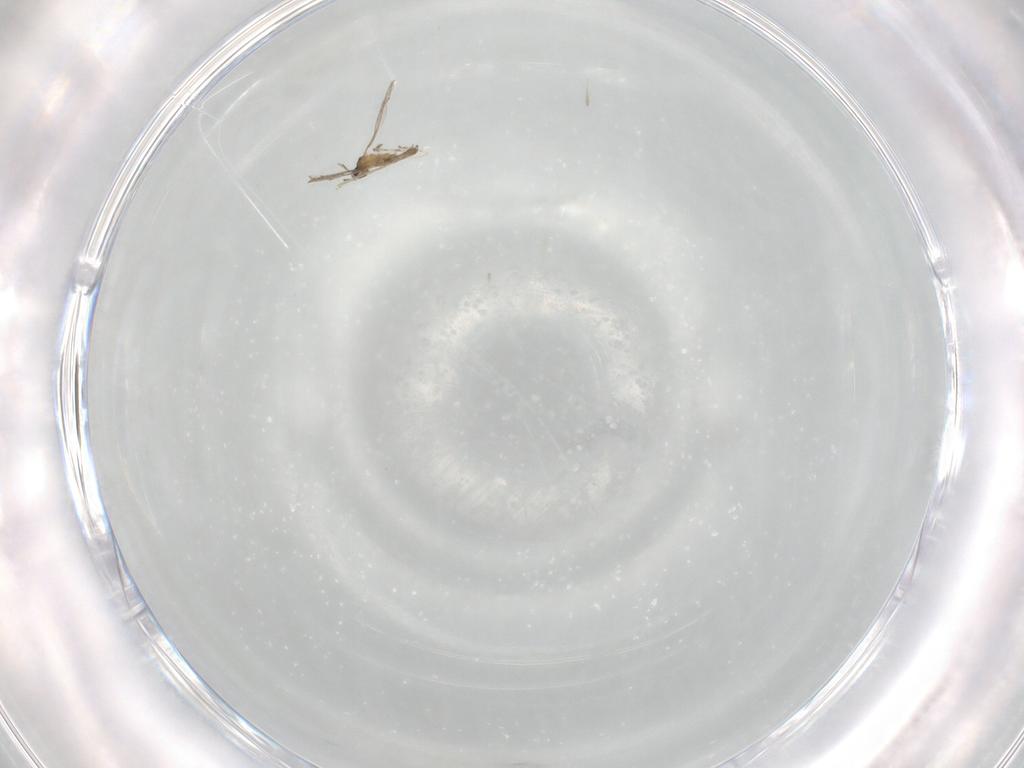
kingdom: Animalia
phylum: Arthropoda
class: Insecta
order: Diptera
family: Cecidomyiidae
